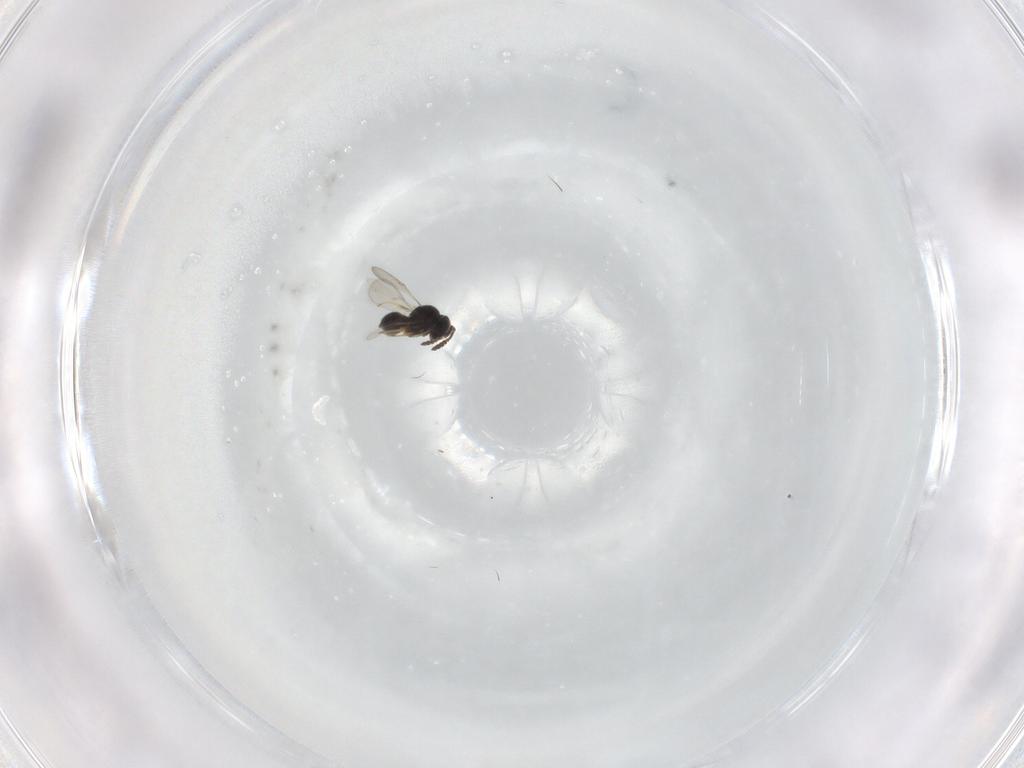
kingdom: Animalia
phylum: Arthropoda
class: Insecta
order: Hymenoptera
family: Scelionidae
